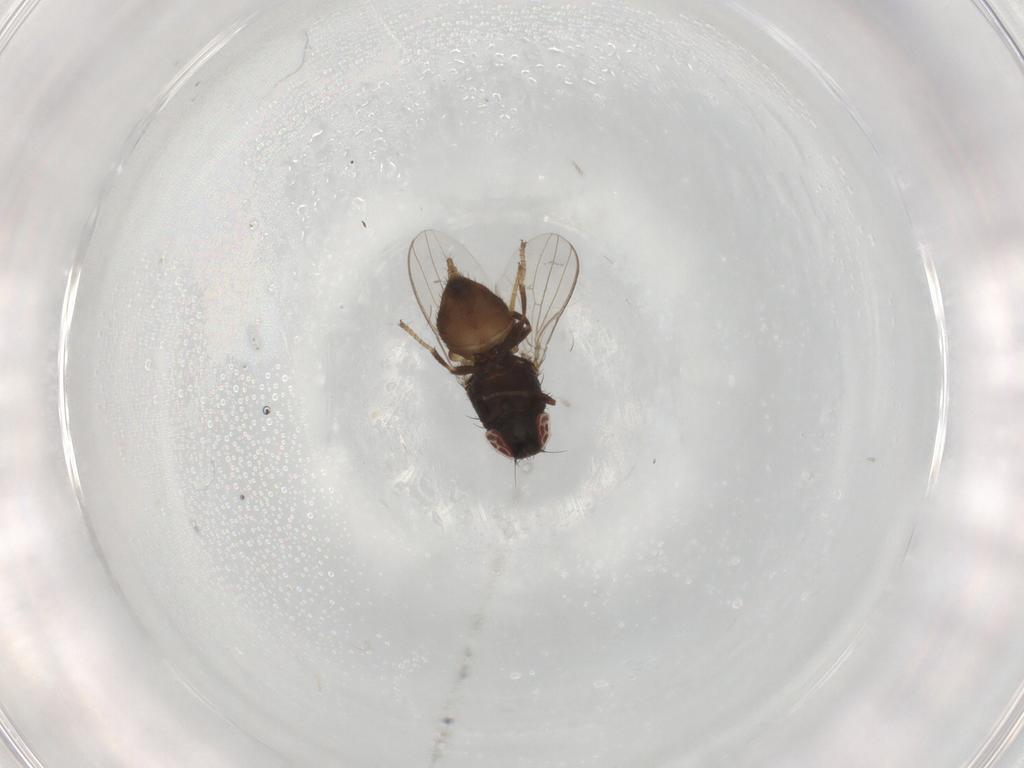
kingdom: Animalia
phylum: Arthropoda
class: Insecta
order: Diptera
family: Milichiidae
